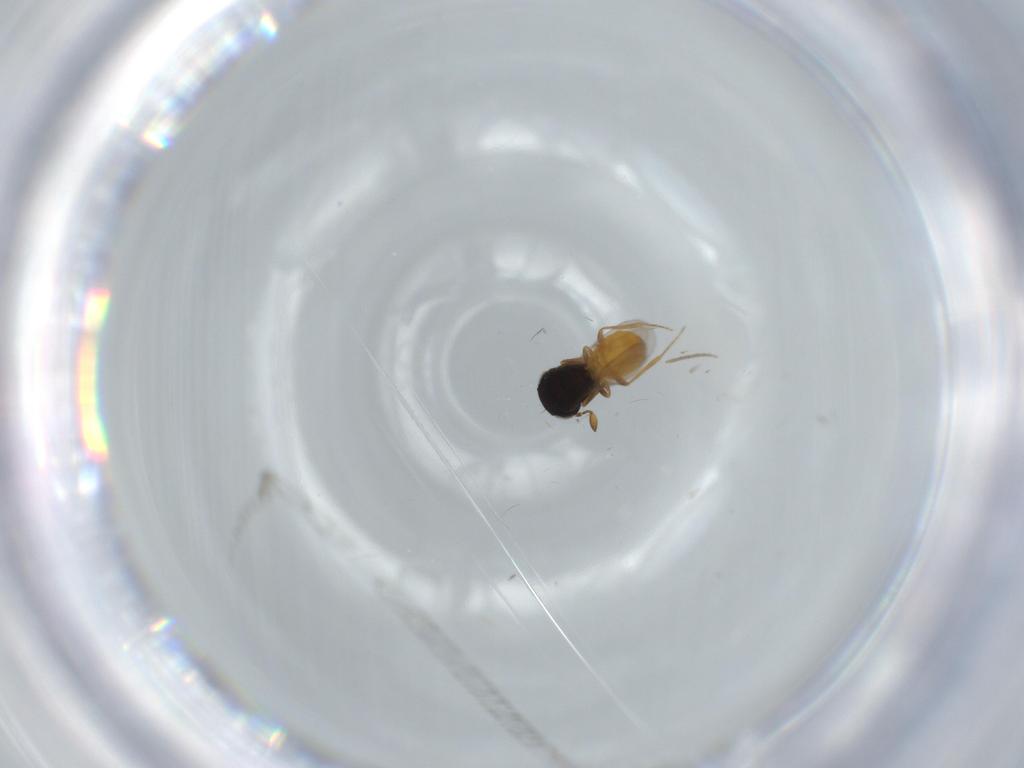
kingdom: Animalia
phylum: Arthropoda
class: Insecta
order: Hymenoptera
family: Scelionidae
